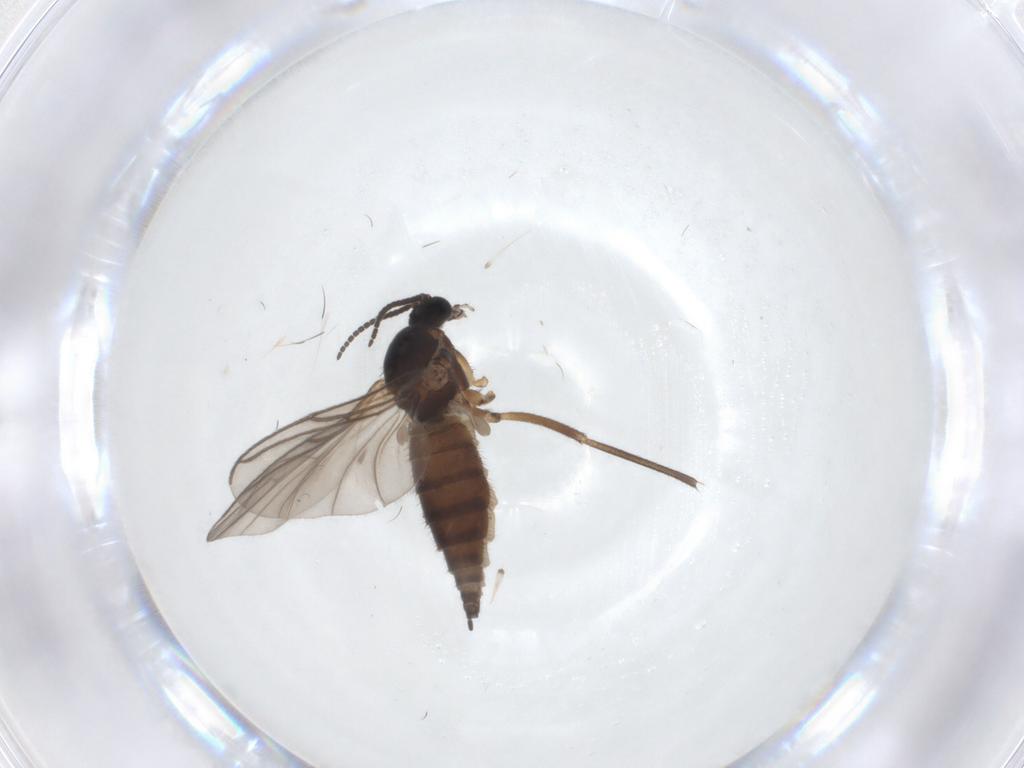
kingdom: Animalia
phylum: Arthropoda
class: Insecta
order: Diptera
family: Sciaridae
